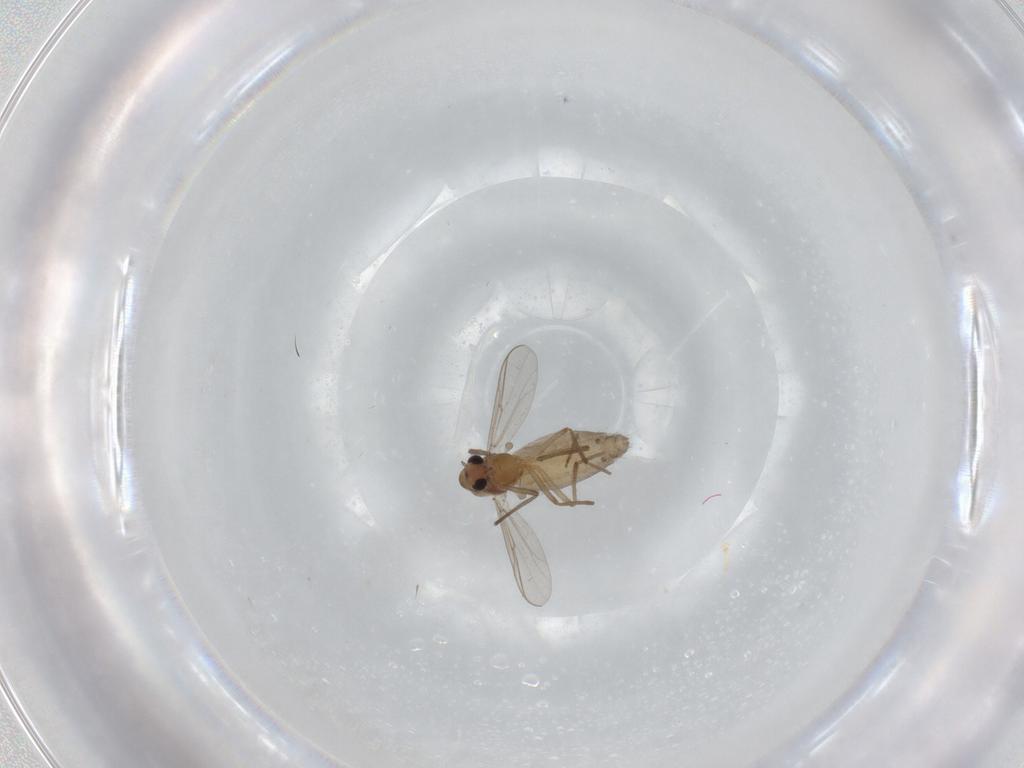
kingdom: Animalia
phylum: Arthropoda
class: Insecta
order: Diptera
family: Chironomidae
